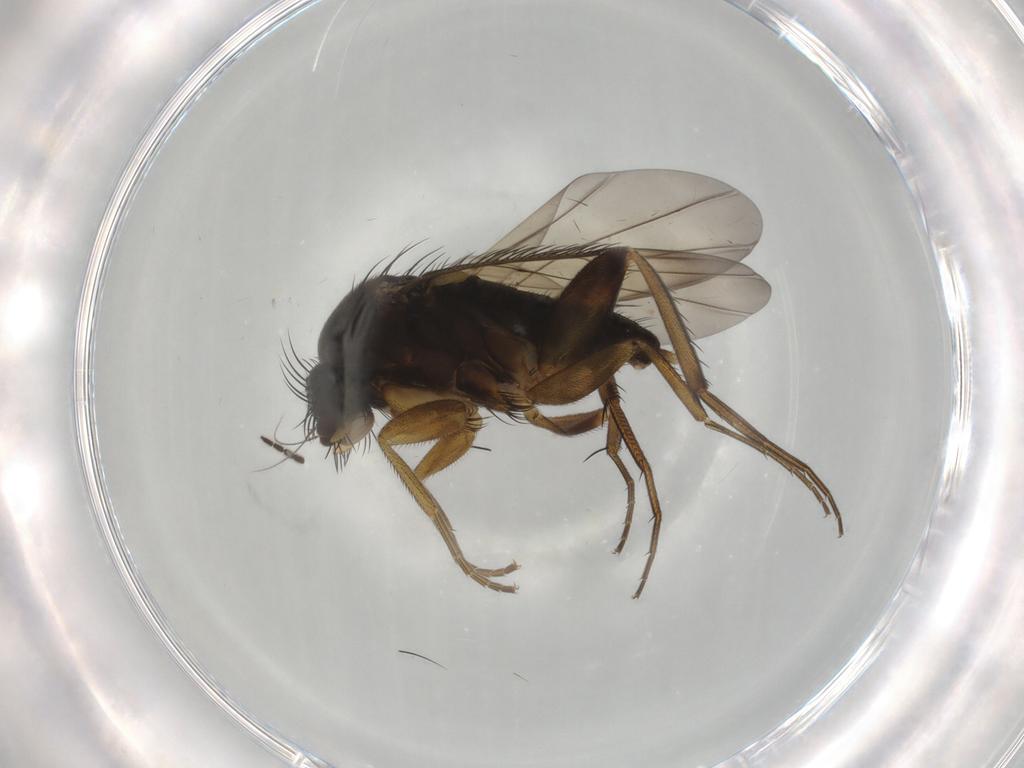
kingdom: Animalia
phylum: Arthropoda
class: Insecta
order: Diptera
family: Phoridae
